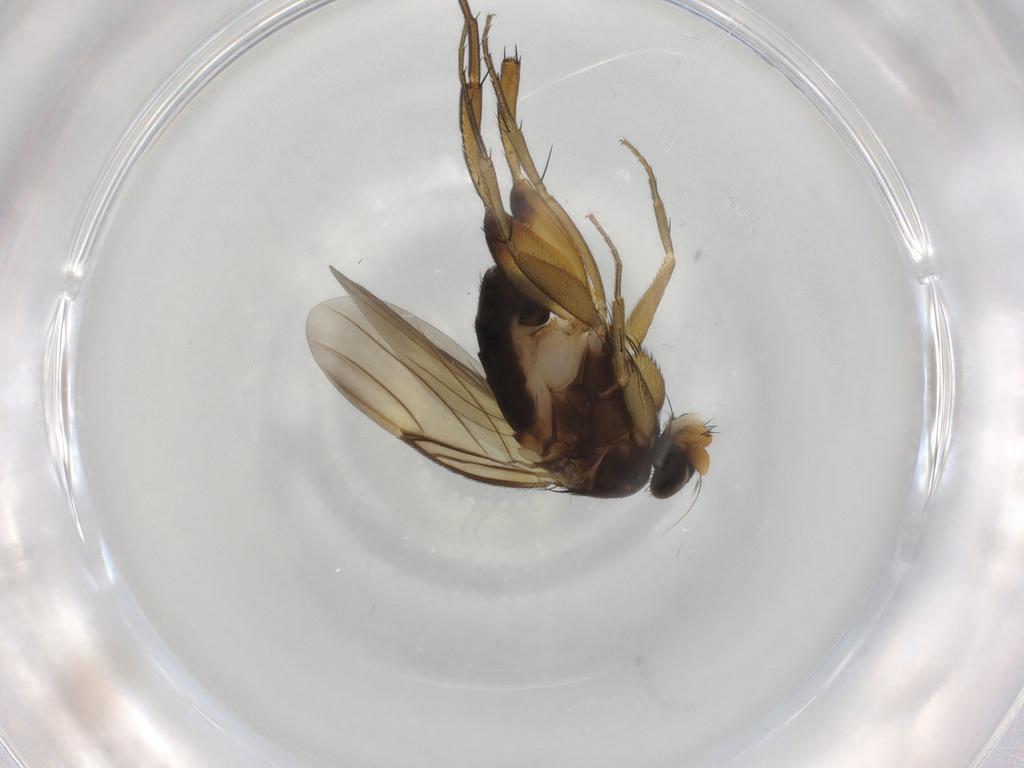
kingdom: Animalia
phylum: Arthropoda
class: Insecta
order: Diptera
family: Phoridae
